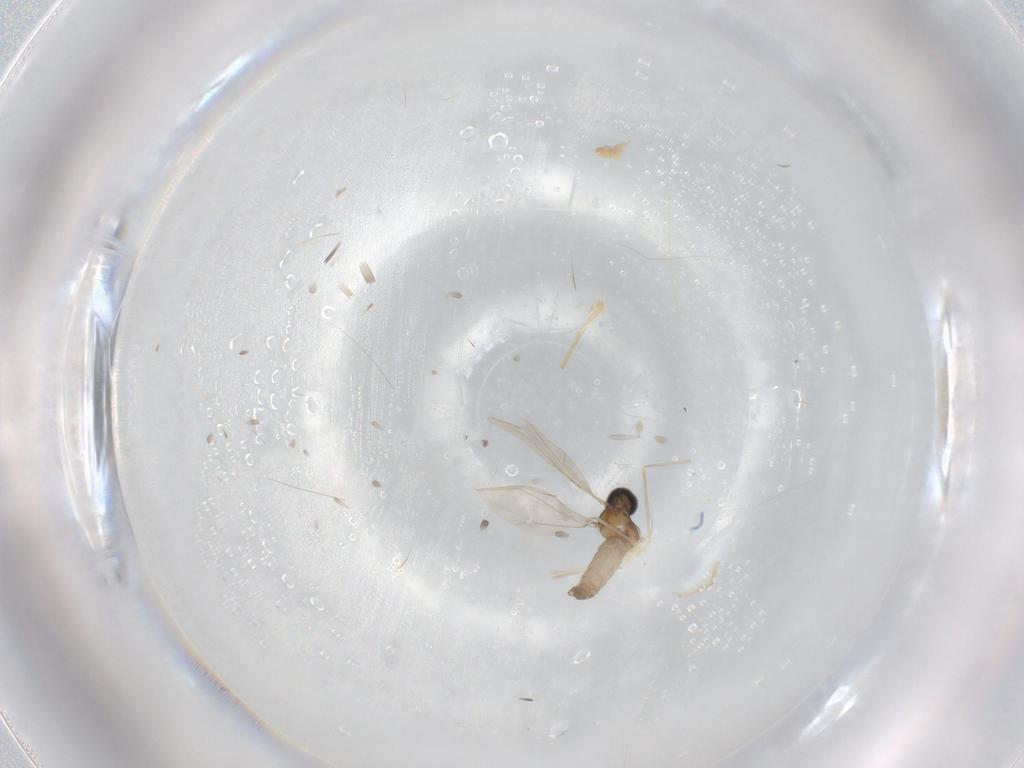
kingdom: Animalia
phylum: Arthropoda
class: Insecta
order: Diptera
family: Cecidomyiidae
